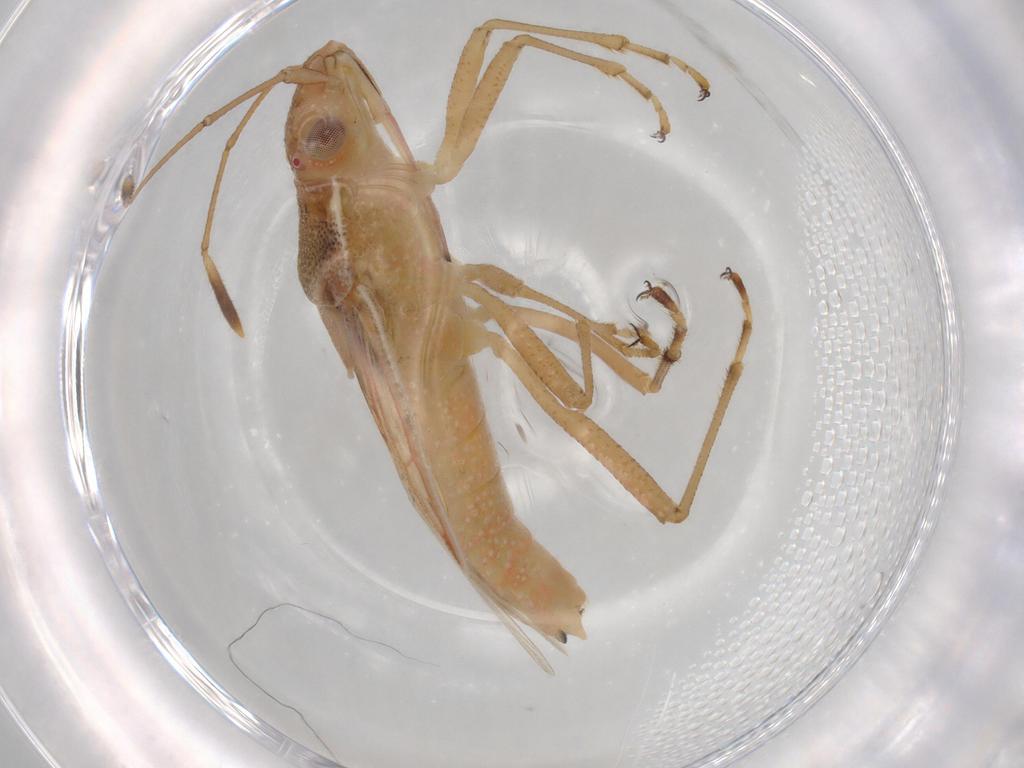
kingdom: Animalia
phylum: Arthropoda
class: Insecta
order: Hemiptera
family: Rhopalidae
